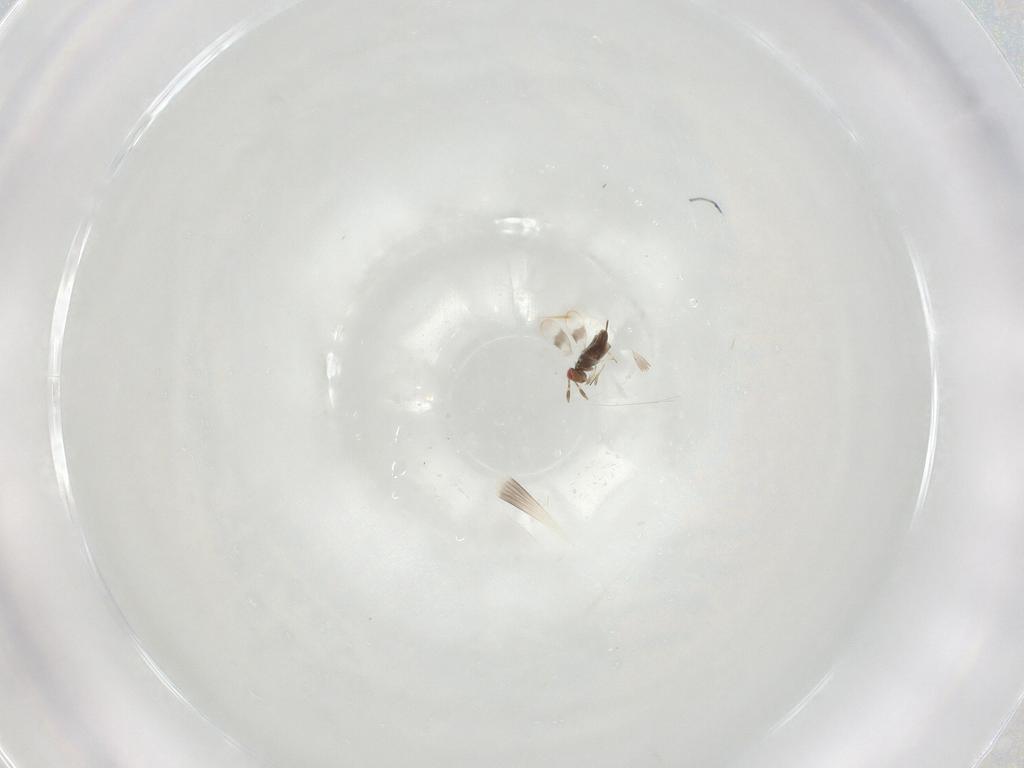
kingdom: Animalia
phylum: Arthropoda
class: Insecta
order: Hymenoptera
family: Azotidae
